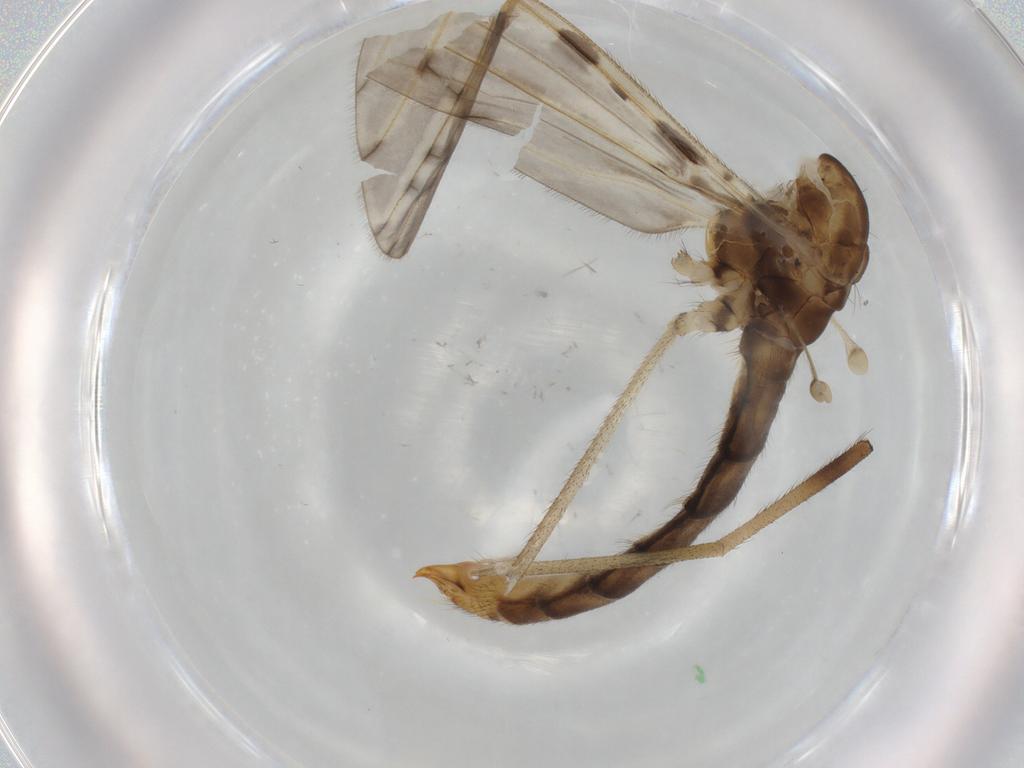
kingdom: Animalia
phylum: Arthropoda
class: Insecta
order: Diptera
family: Limoniidae
